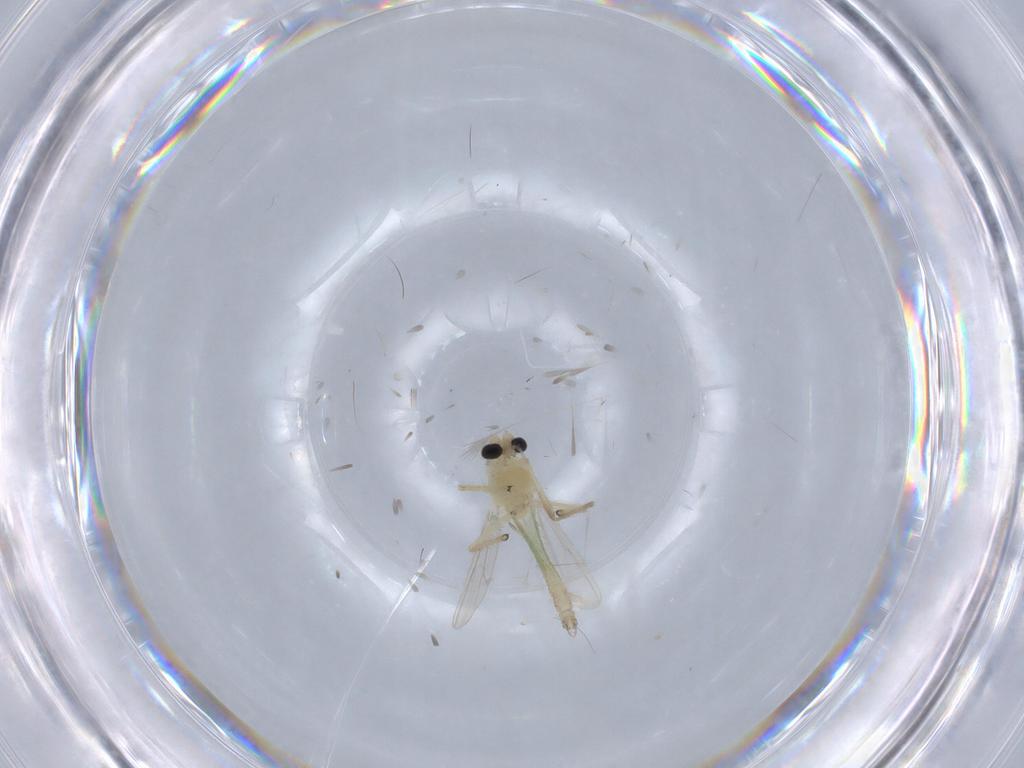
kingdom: Animalia
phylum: Arthropoda
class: Insecta
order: Diptera
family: Chironomidae
